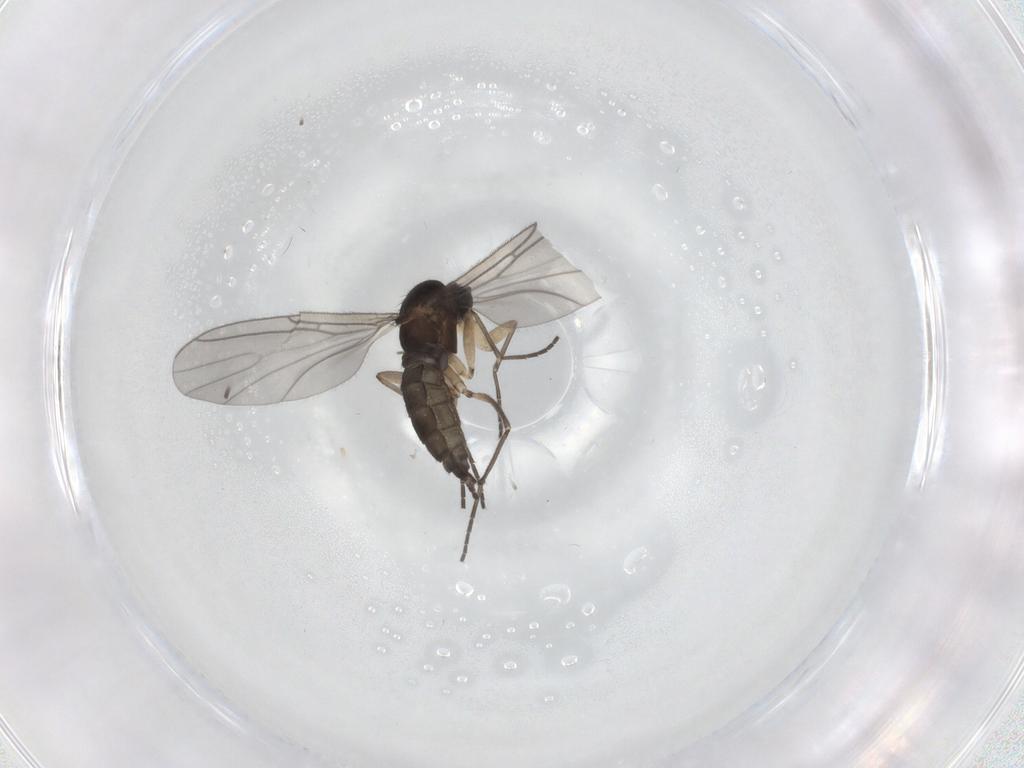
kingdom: Animalia
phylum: Arthropoda
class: Insecta
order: Diptera
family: Sciaridae
